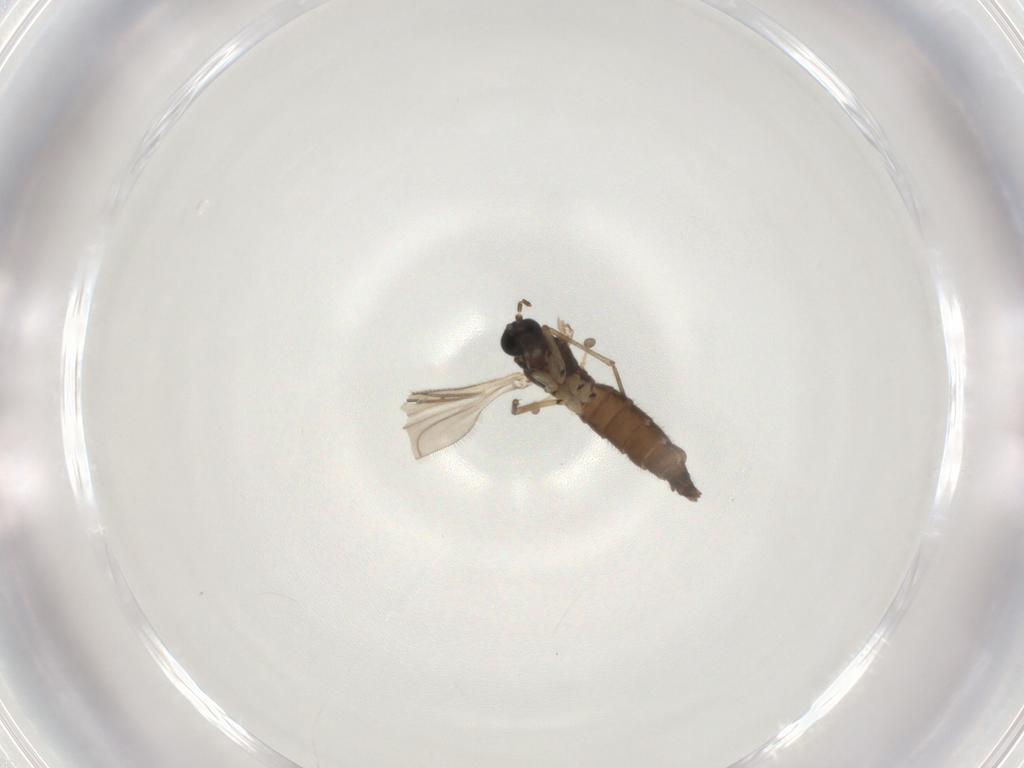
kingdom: Animalia
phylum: Arthropoda
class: Insecta
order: Diptera
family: Sciaridae
